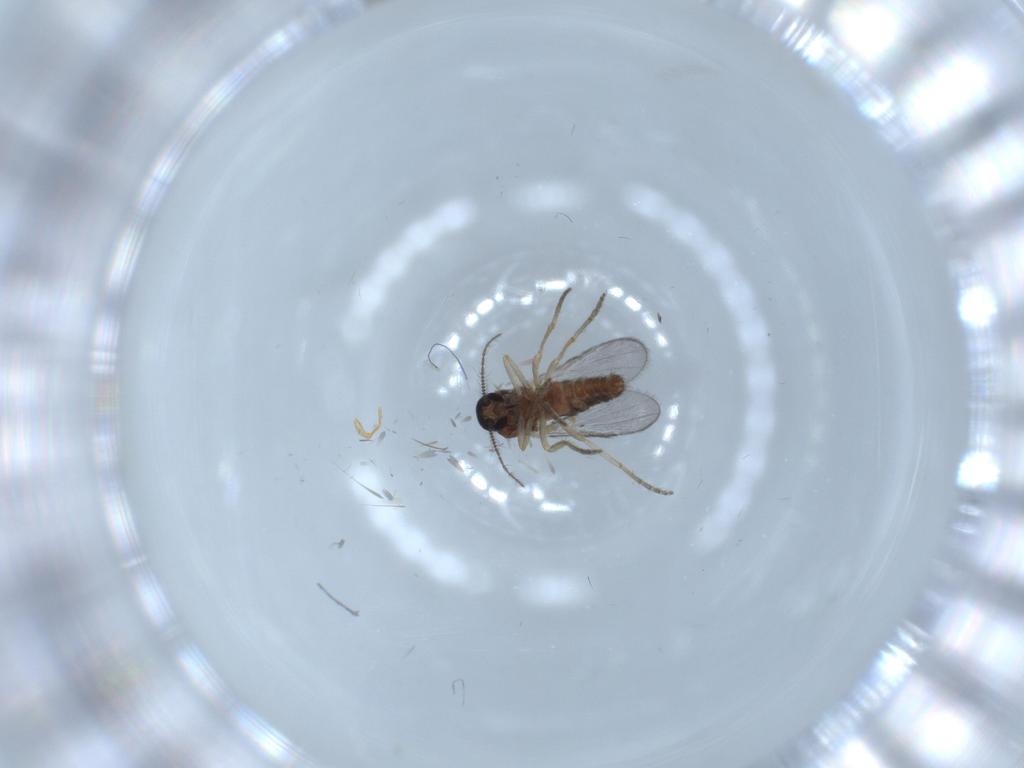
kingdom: Animalia
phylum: Arthropoda
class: Insecta
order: Diptera
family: Ceratopogonidae
